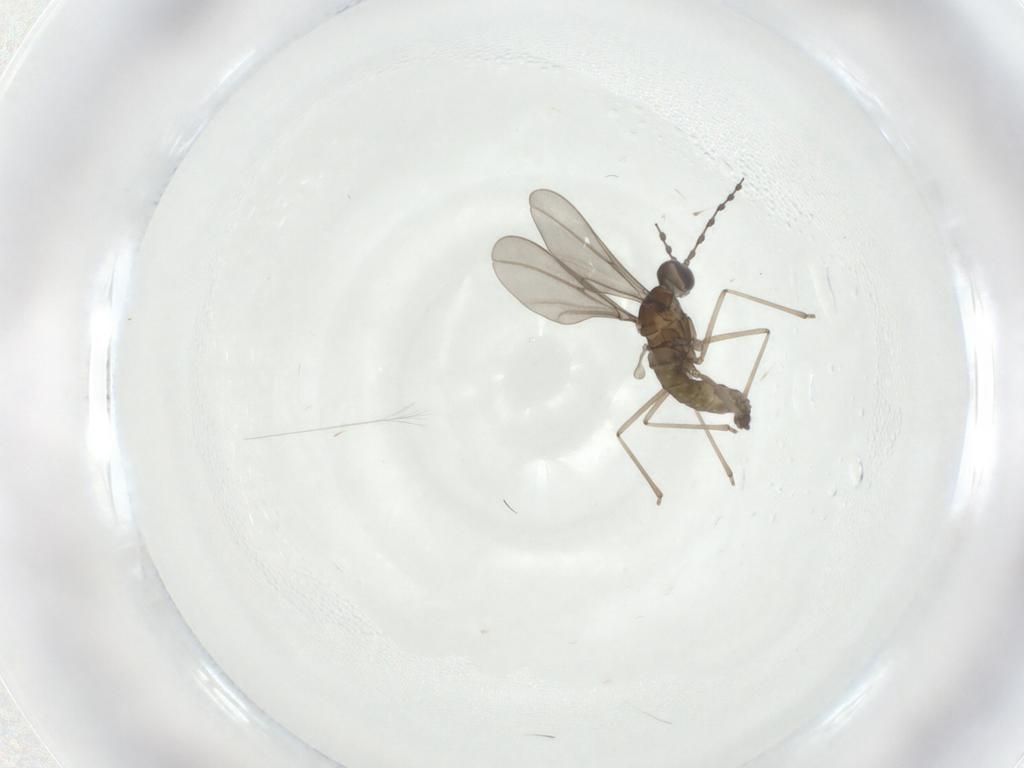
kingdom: Animalia
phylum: Arthropoda
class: Insecta
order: Diptera
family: Cecidomyiidae
